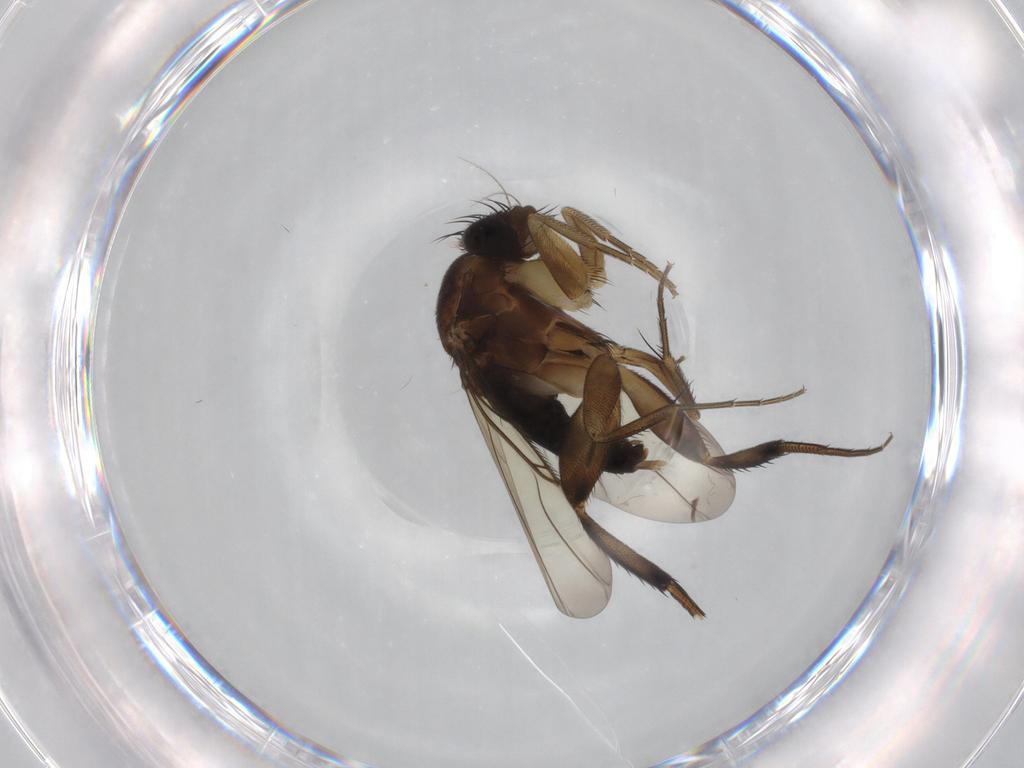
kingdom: Animalia
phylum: Arthropoda
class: Insecta
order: Diptera
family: Phoridae
